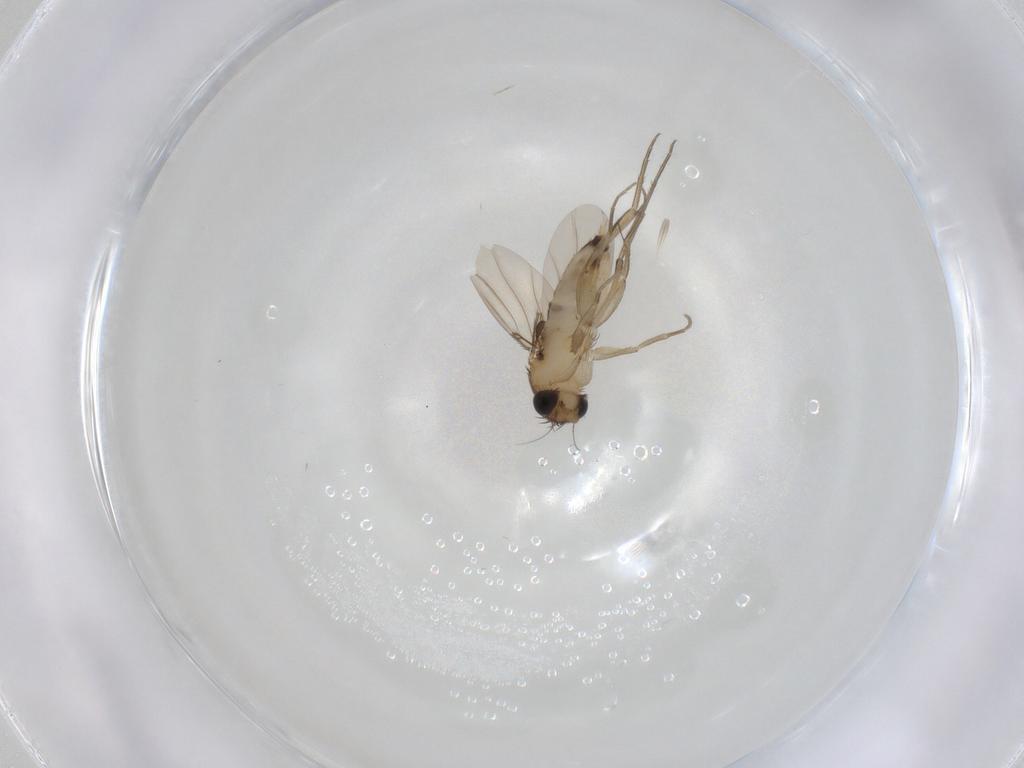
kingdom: Animalia
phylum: Arthropoda
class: Insecta
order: Diptera
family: Phoridae
